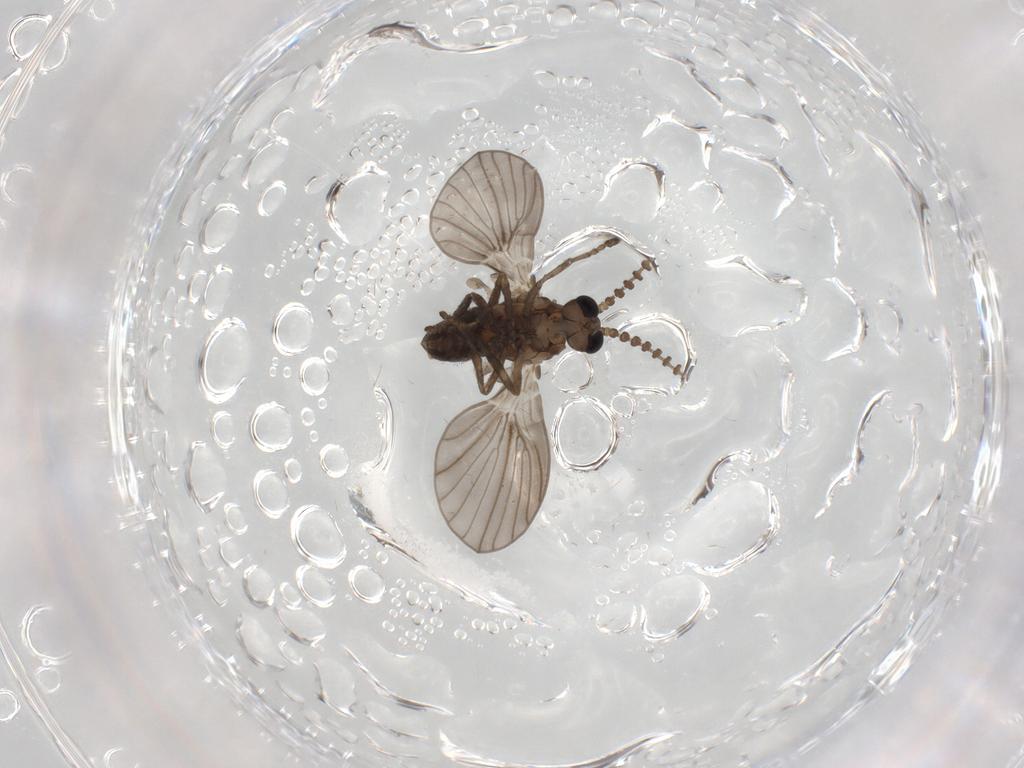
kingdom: Animalia
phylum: Arthropoda
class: Insecta
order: Diptera
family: Psychodidae
